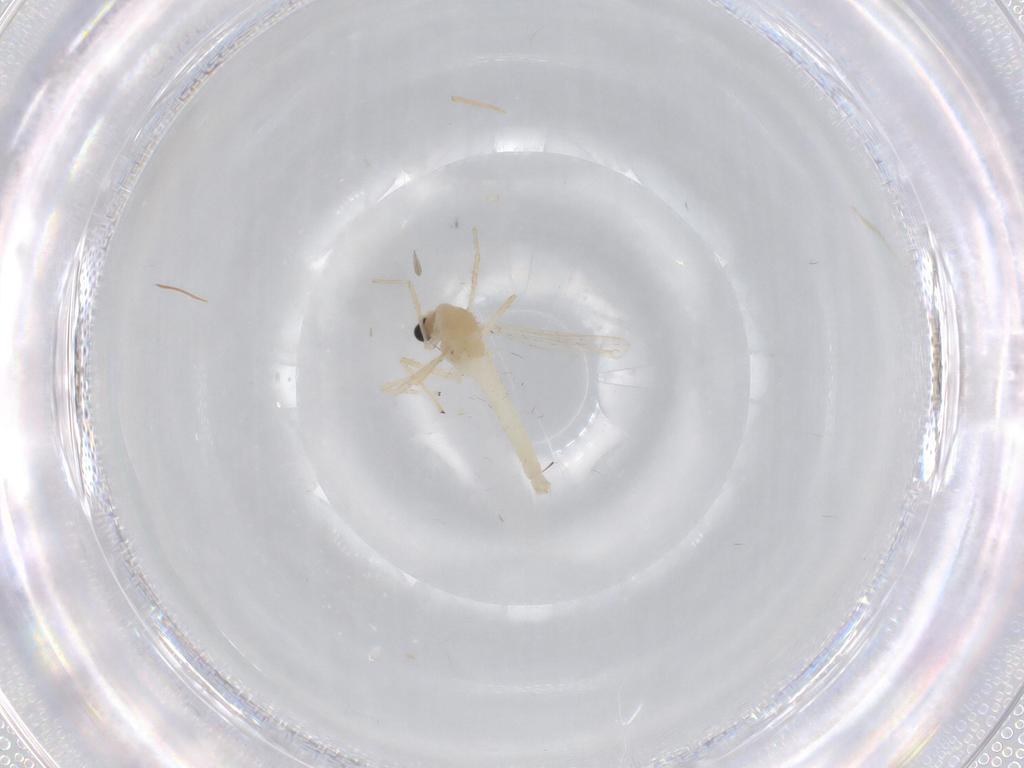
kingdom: Animalia
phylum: Arthropoda
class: Insecta
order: Diptera
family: Chironomidae
